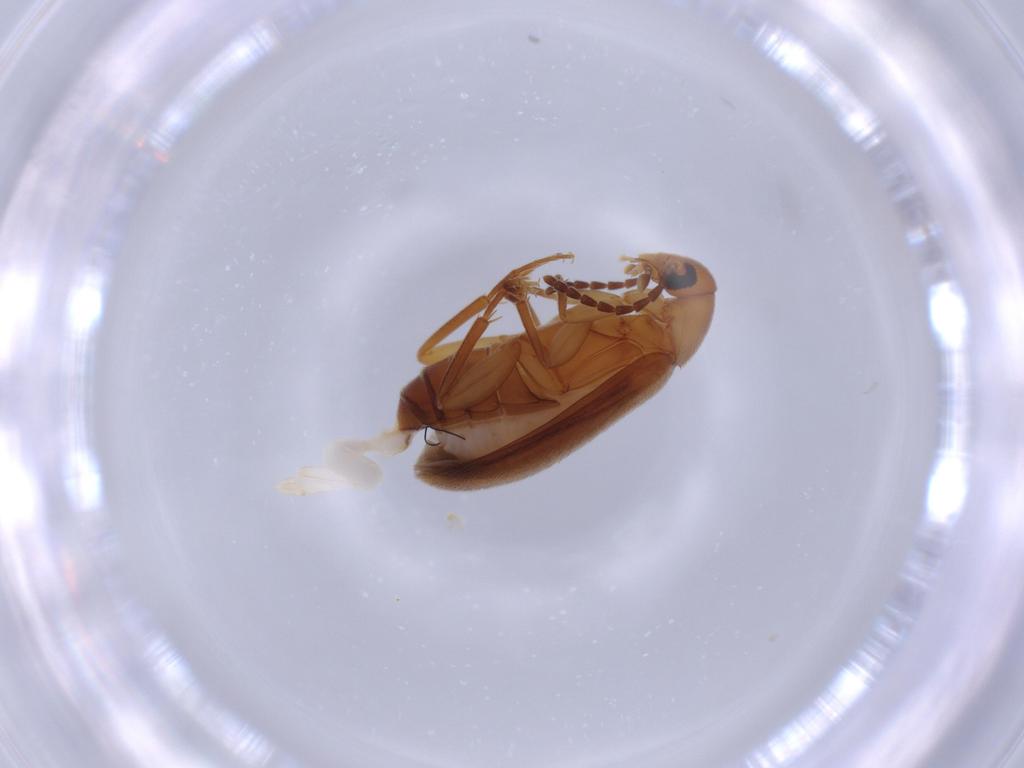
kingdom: Animalia
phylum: Arthropoda
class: Insecta
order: Coleoptera
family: Scraptiidae
